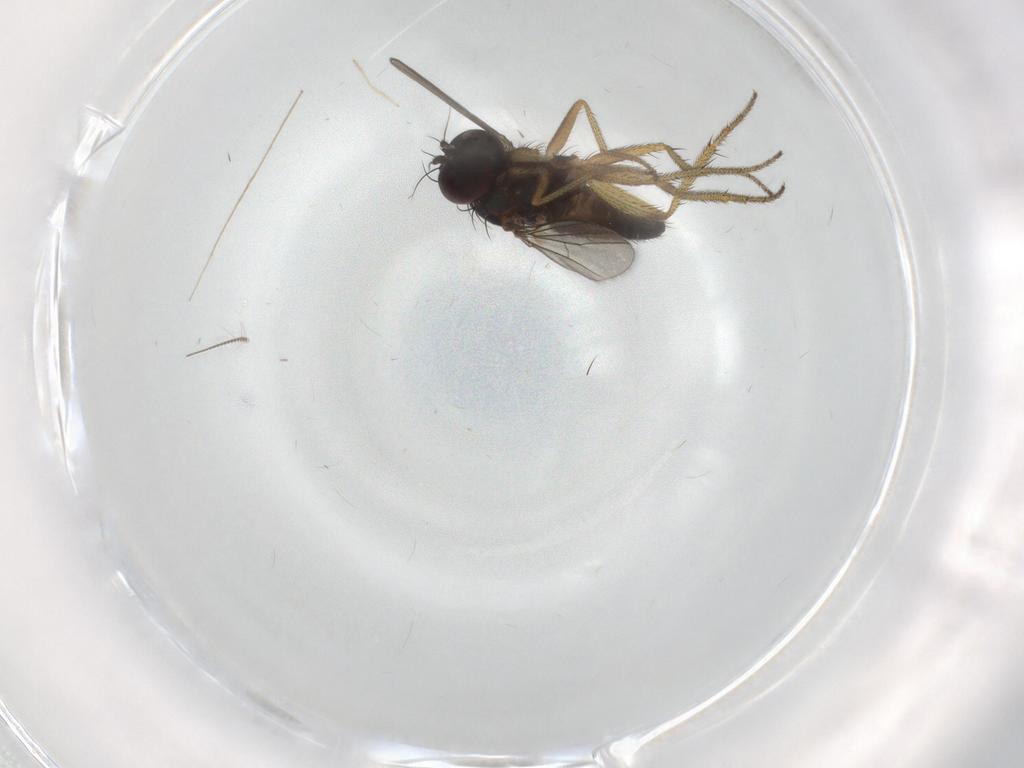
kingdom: Animalia
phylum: Arthropoda
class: Insecta
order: Diptera
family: Chironomidae
